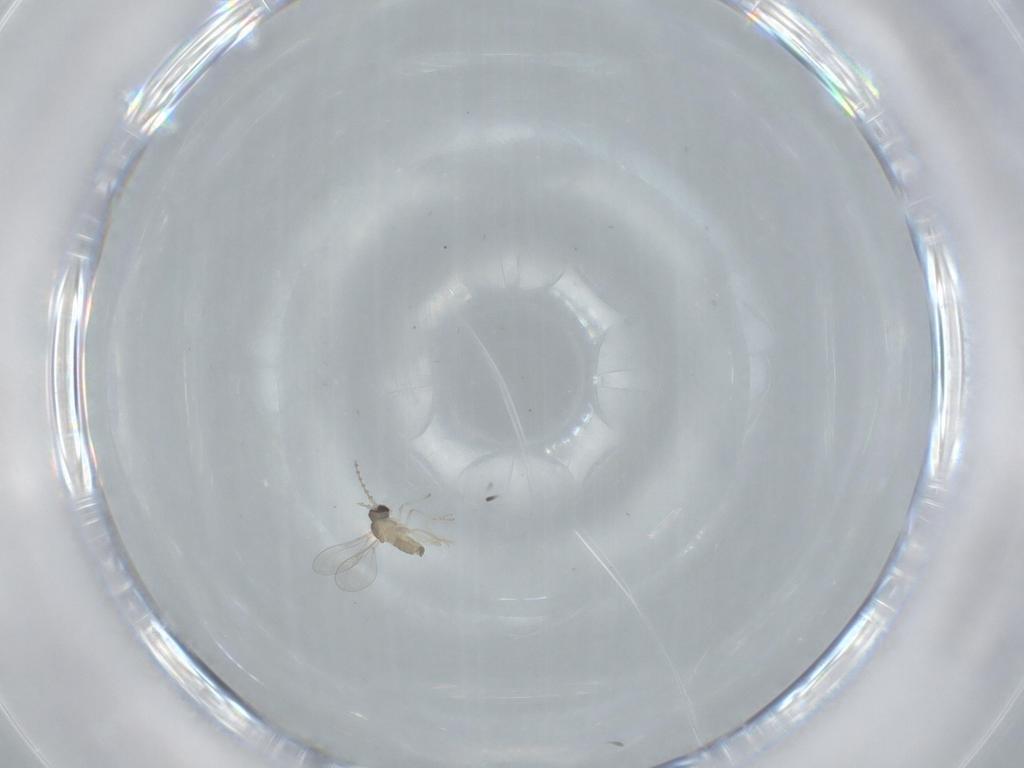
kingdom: Animalia
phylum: Arthropoda
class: Insecta
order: Diptera
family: Cecidomyiidae
